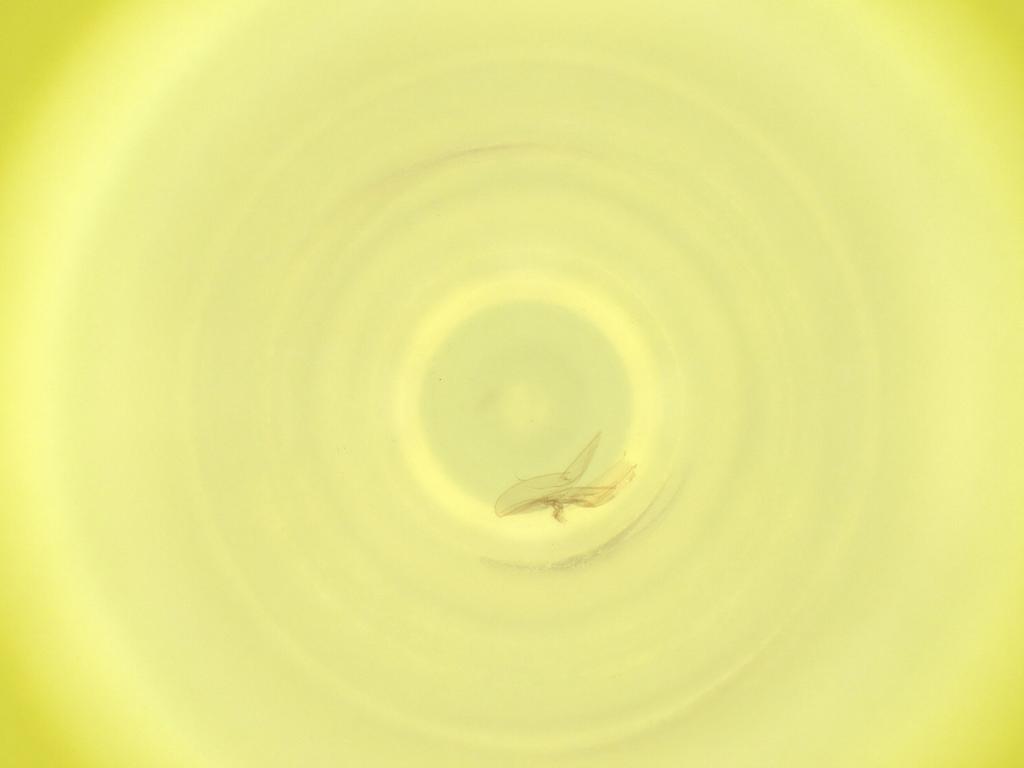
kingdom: Animalia
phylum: Arthropoda
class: Insecta
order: Diptera
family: Cecidomyiidae
